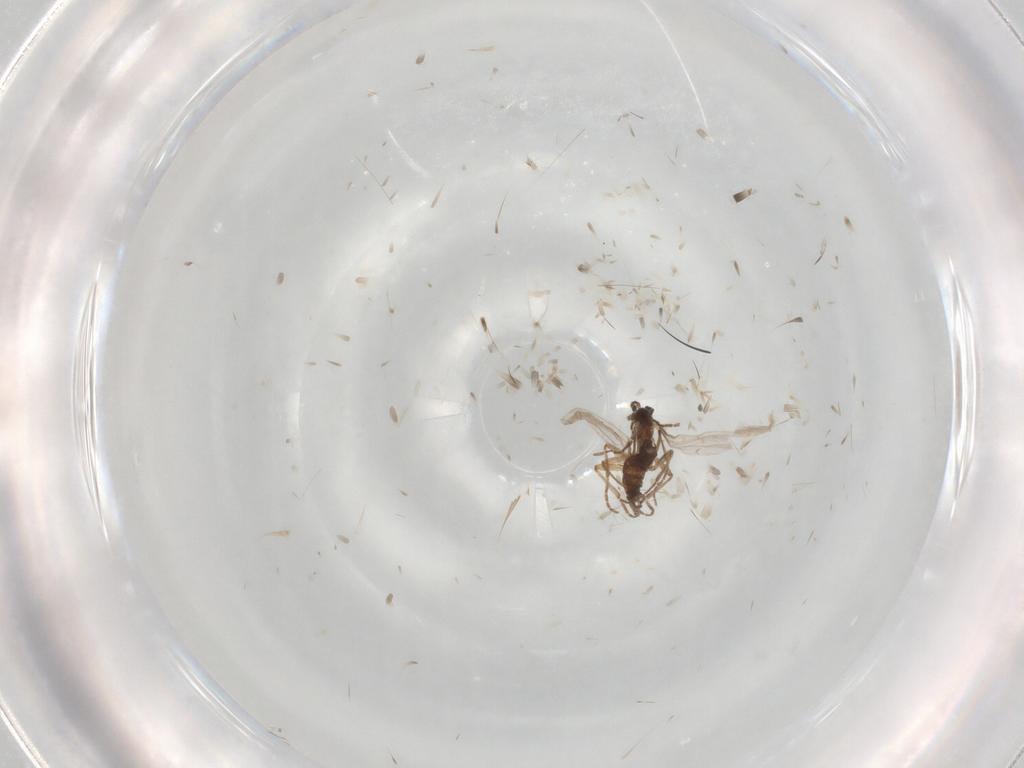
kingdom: Animalia
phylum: Arthropoda
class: Insecta
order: Diptera
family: Sciaridae
